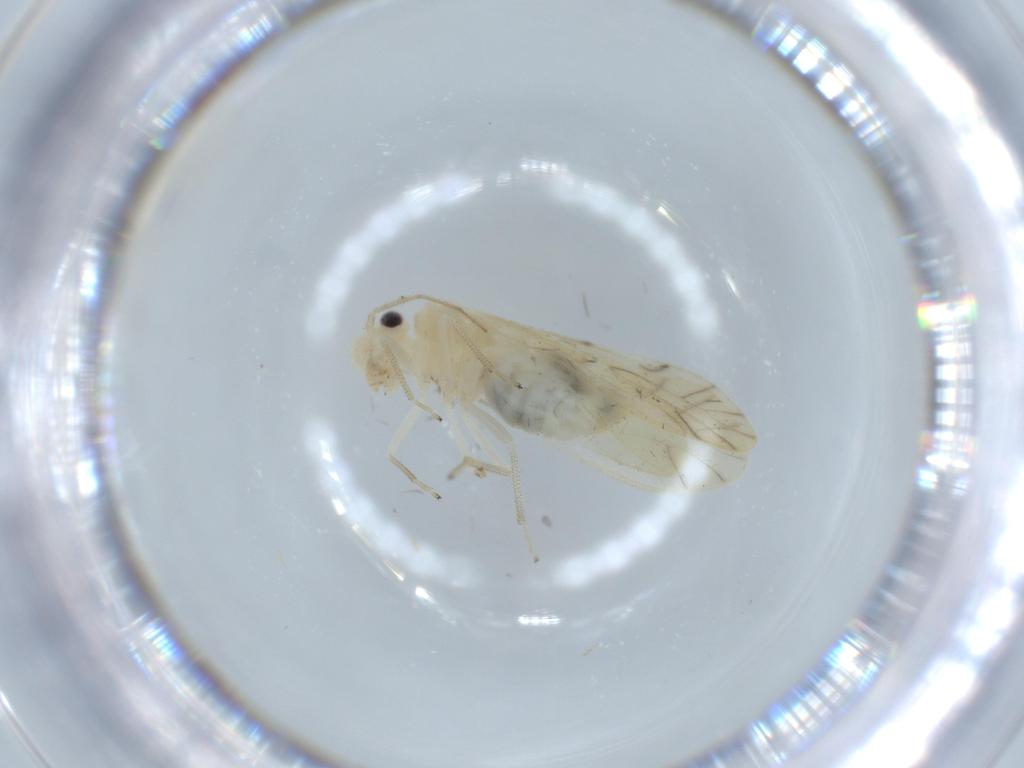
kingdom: Animalia
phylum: Arthropoda
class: Insecta
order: Psocodea
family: Caeciliusidae
